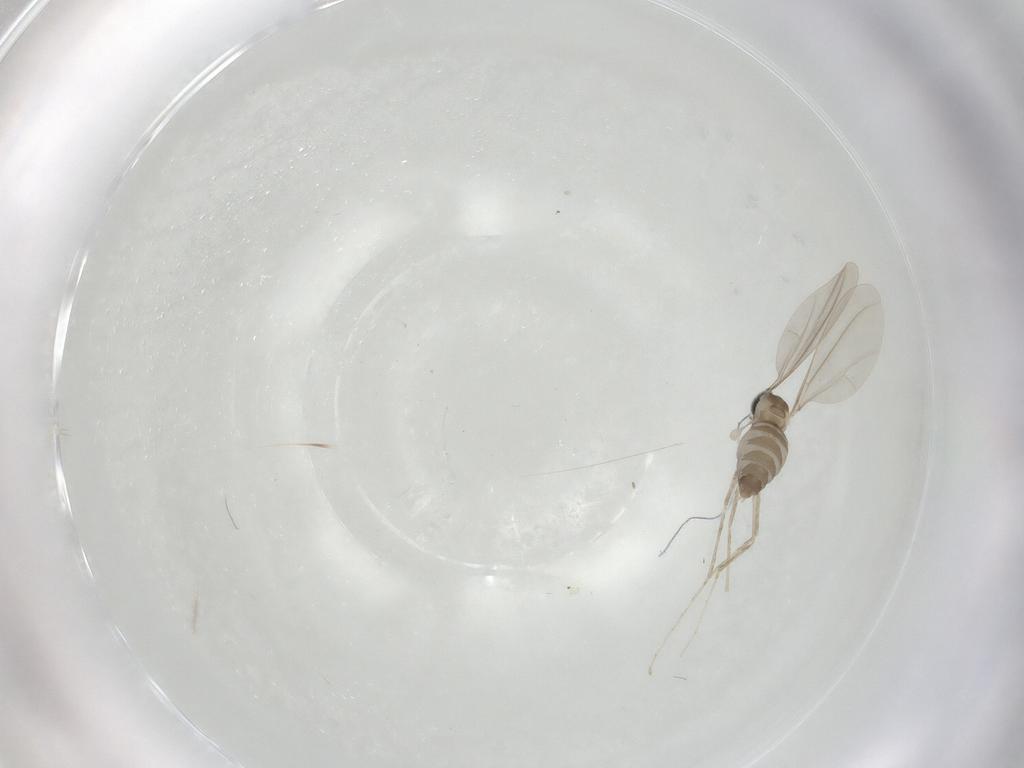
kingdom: Animalia
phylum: Arthropoda
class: Insecta
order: Diptera
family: Cecidomyiidae
